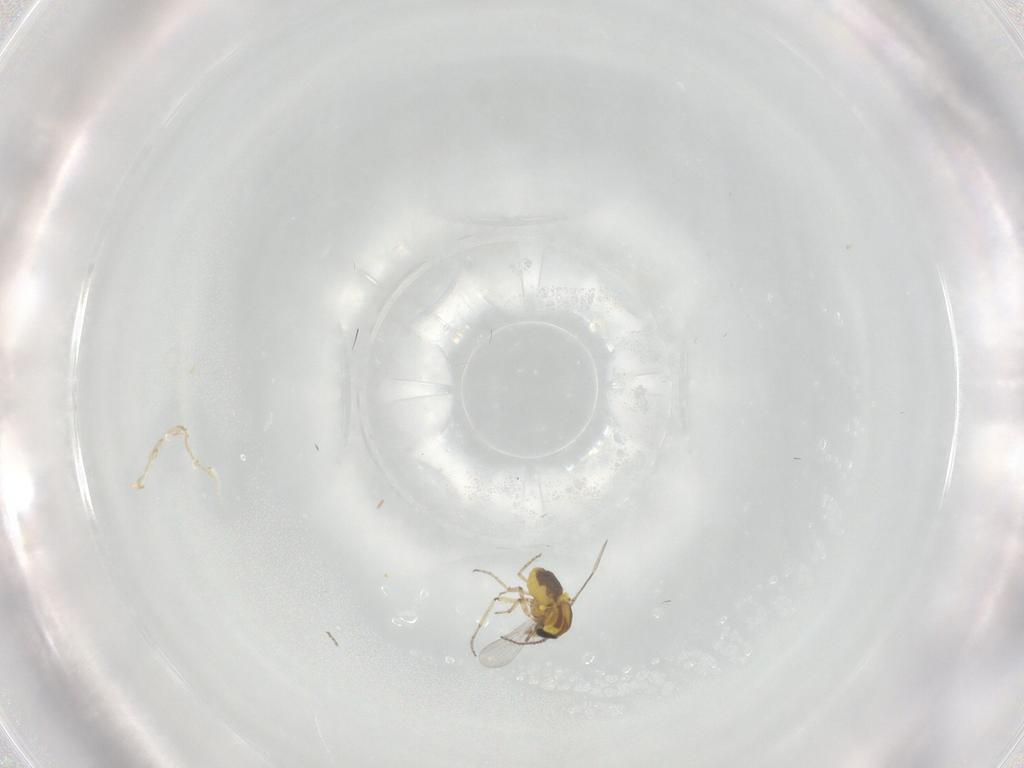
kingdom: Animalia
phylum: Arthropoda
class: Insecta
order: Diptera
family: Ceratopogonidae
